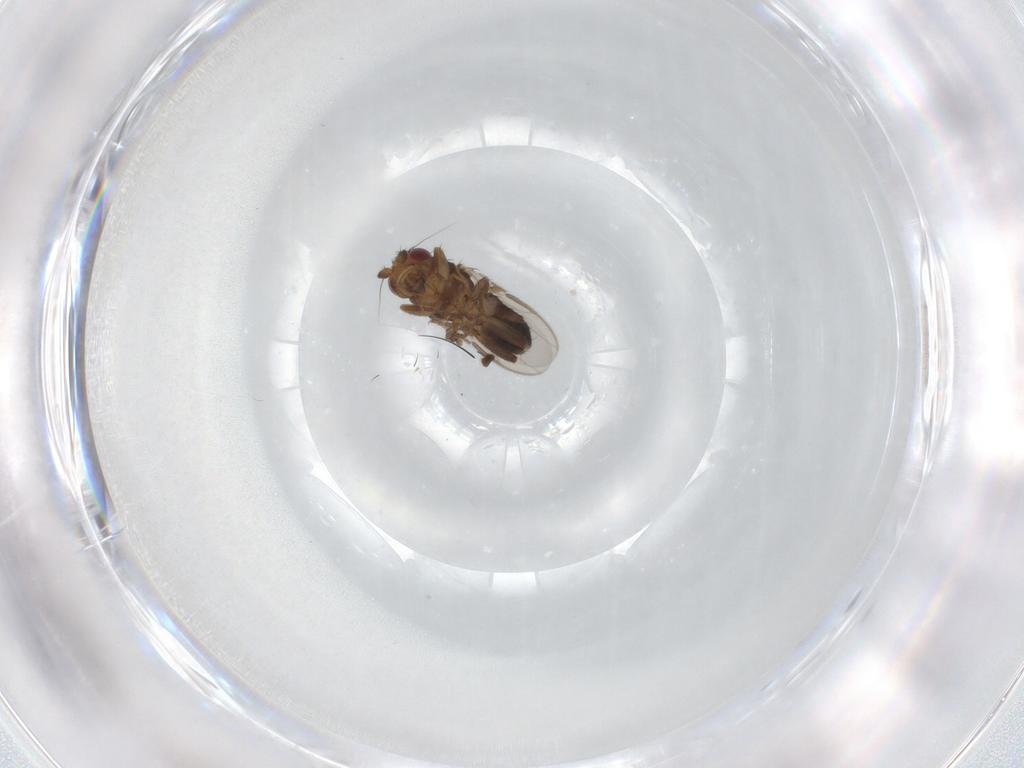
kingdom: Animalia
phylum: Arthropoda
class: Insecta
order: Diptera
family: Dolichopodidae
